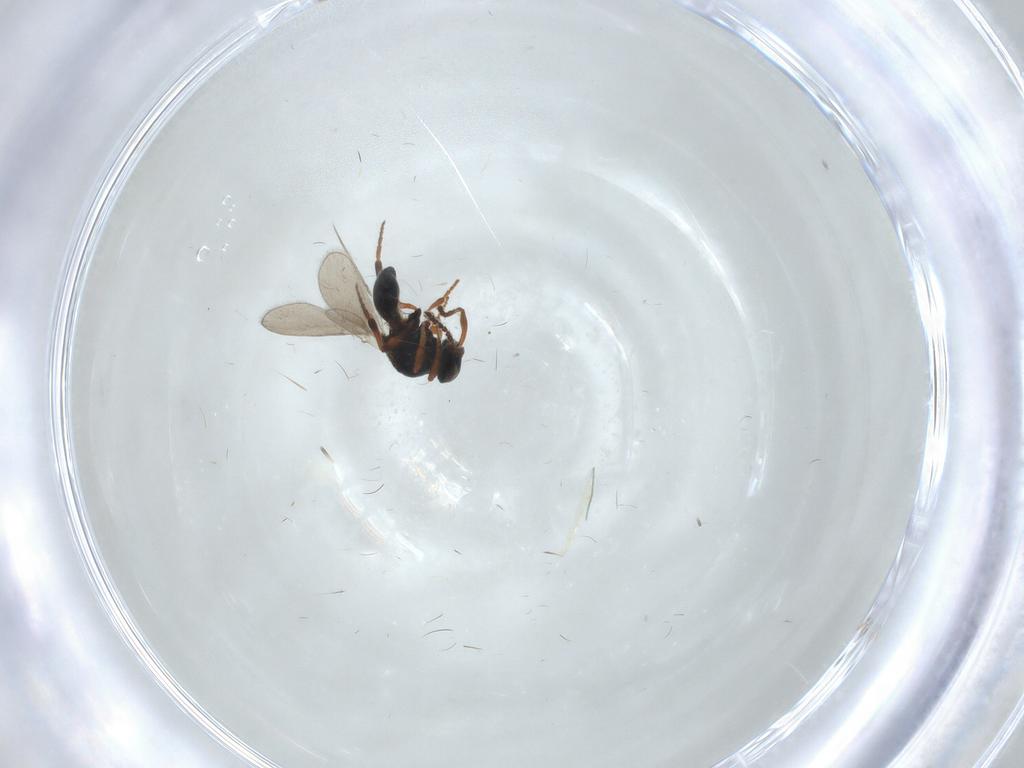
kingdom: Animalia
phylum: Arthropoda
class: Insecta
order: Hymenoptera
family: Platygastridae
